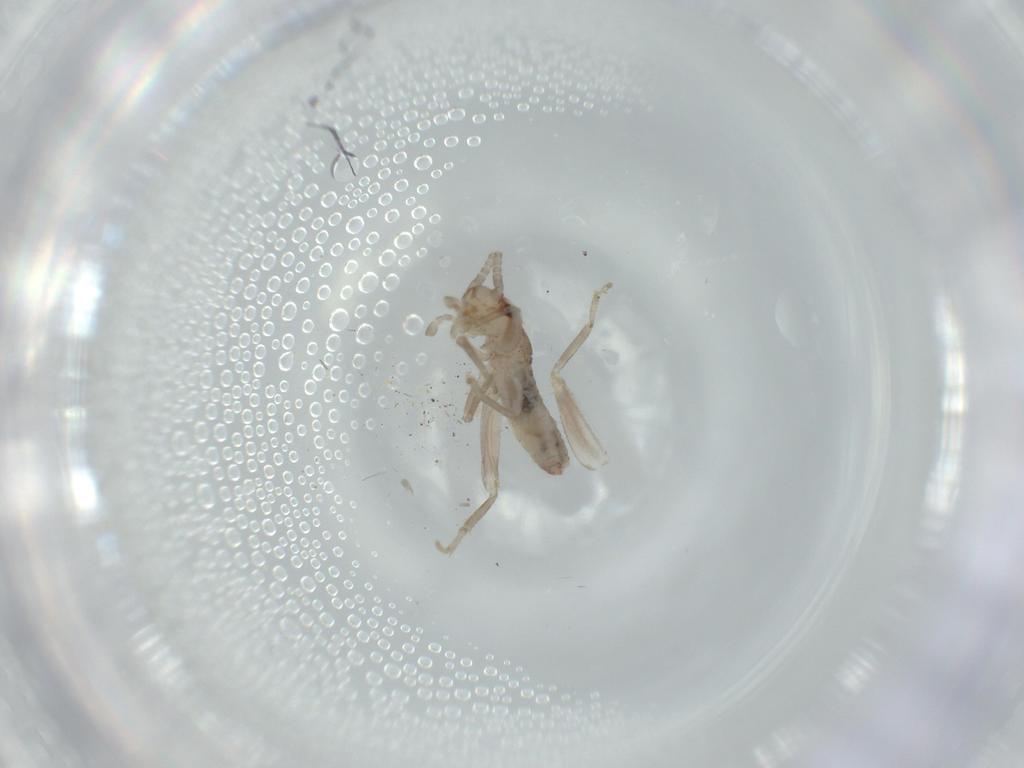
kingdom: Animalia
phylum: Arthropoda
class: Insecta
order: Orthoptera
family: Mogoplistidae
